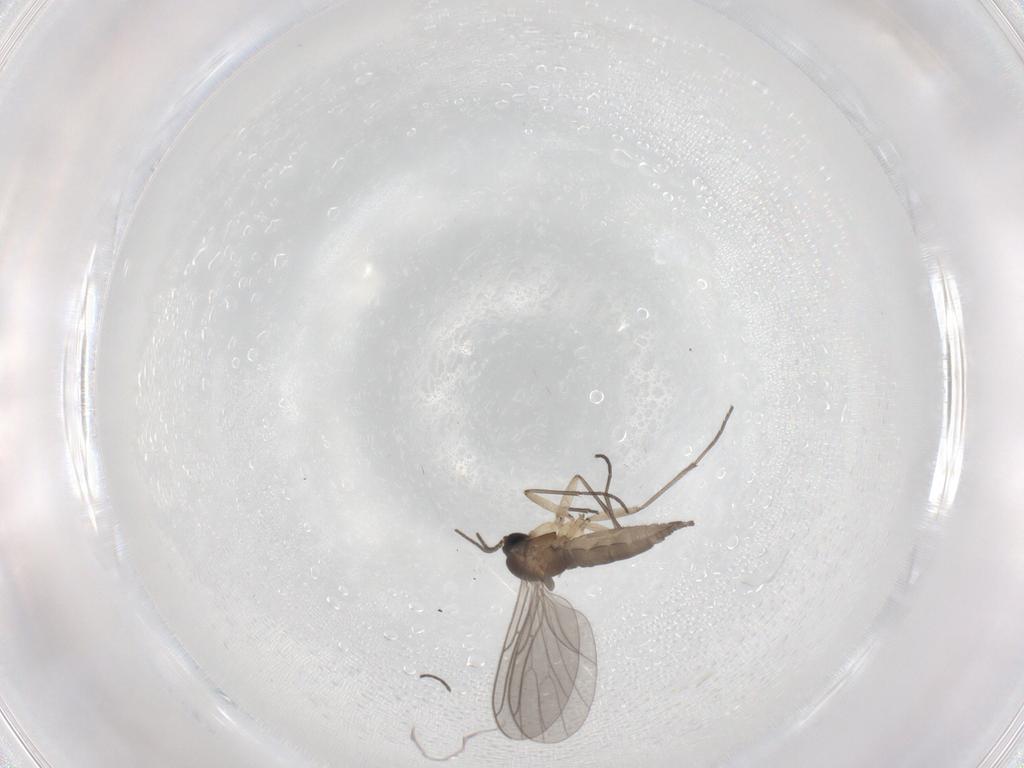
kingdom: Animalia
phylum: Arthropoda
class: Insecta
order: Diptera
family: Sciaridae
